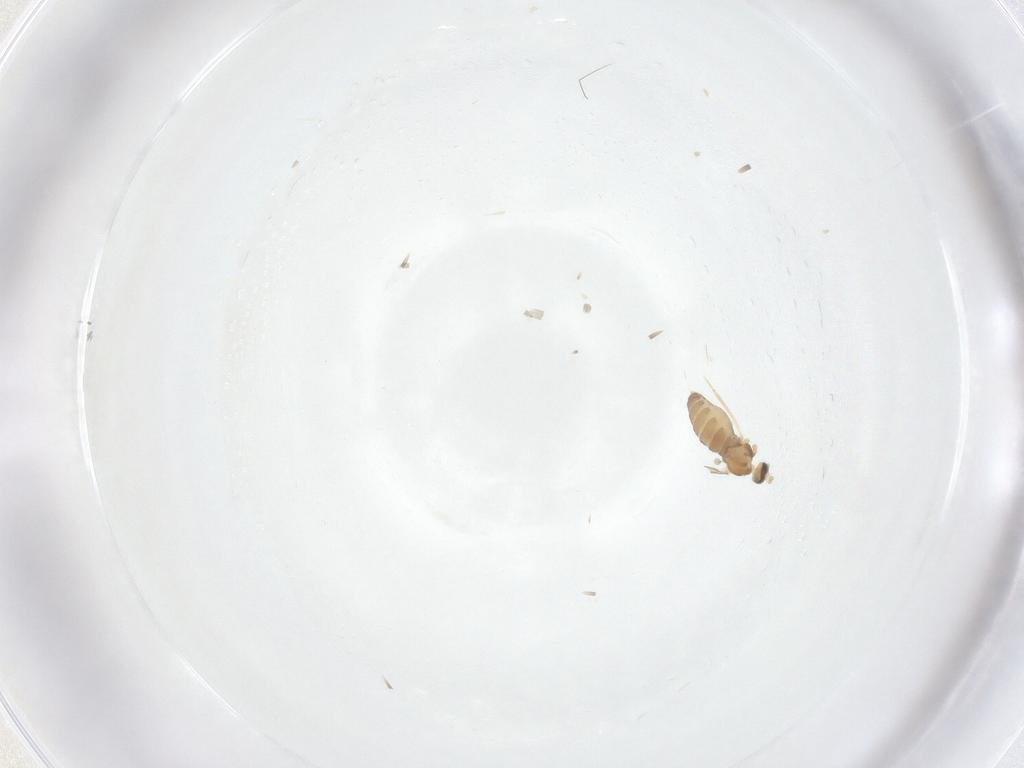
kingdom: Animalia
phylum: Arthropoda
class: Insecta
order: Diptera
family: Cecidomyiidae
